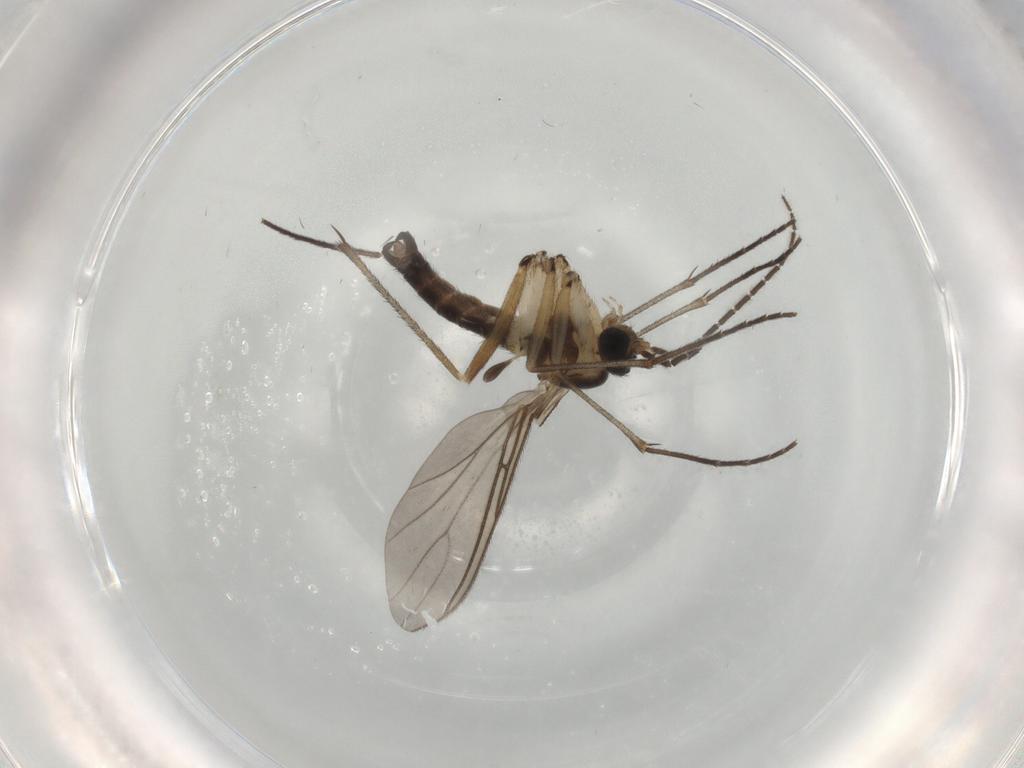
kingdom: Animalia
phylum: Arthropoda
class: Insecta
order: Diptera
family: Sciaridae
